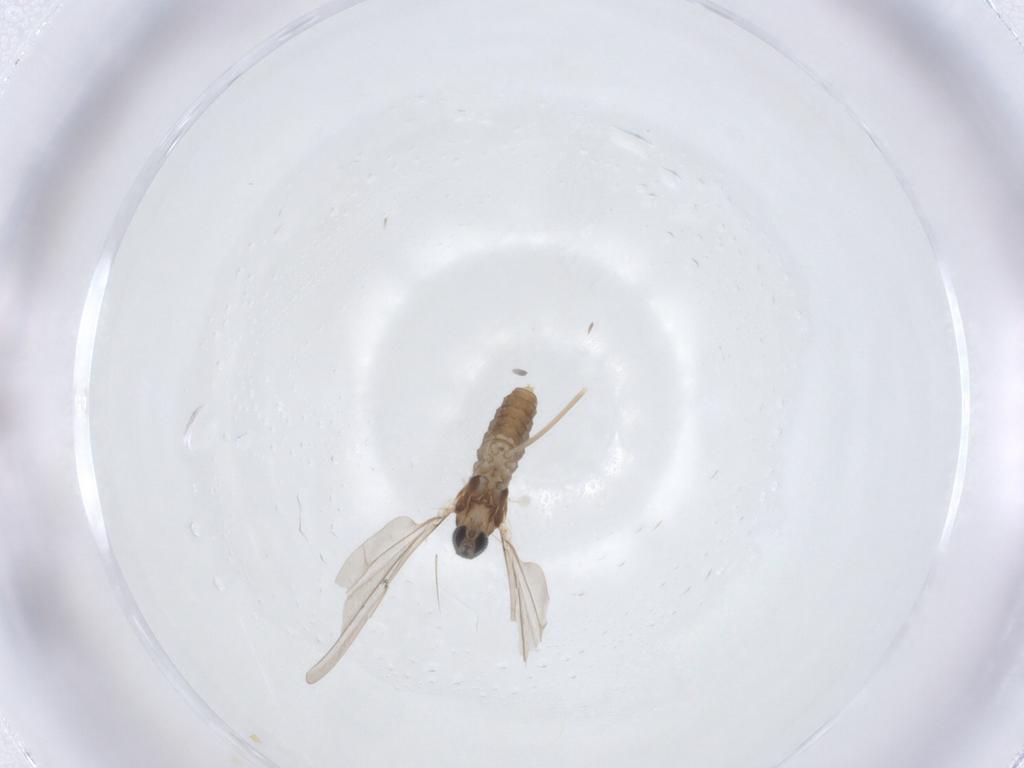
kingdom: Animalia
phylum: Arthropoda
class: Insecta
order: Diptera
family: Cecidomyiidae
